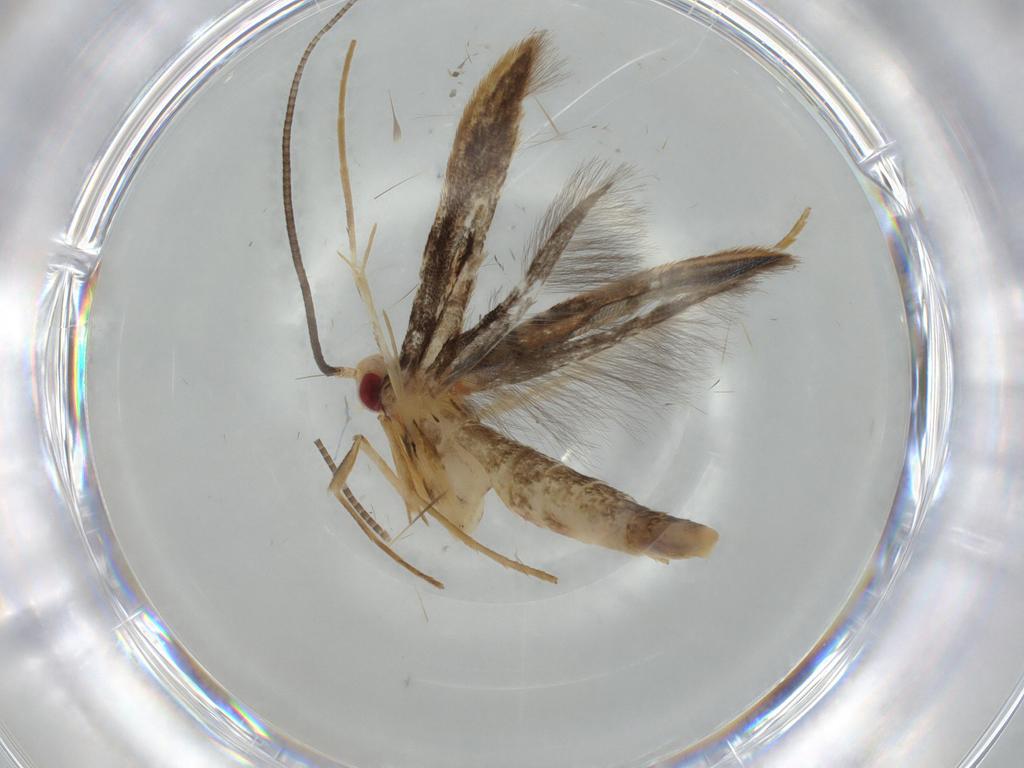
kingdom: Animalia
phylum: Arthropoda
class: Insecta
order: Lepidoptera
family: Gracillariidae
